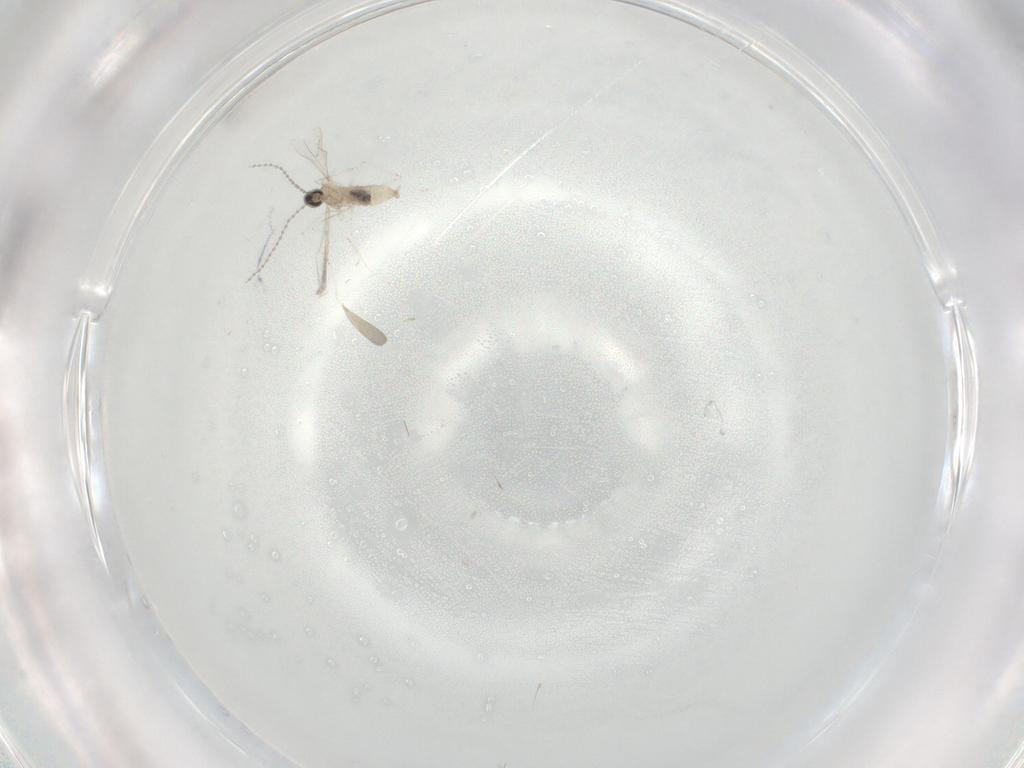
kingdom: Animalia
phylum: Arthropoda
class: Insecta
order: Diptera
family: Cecidomyiidae
